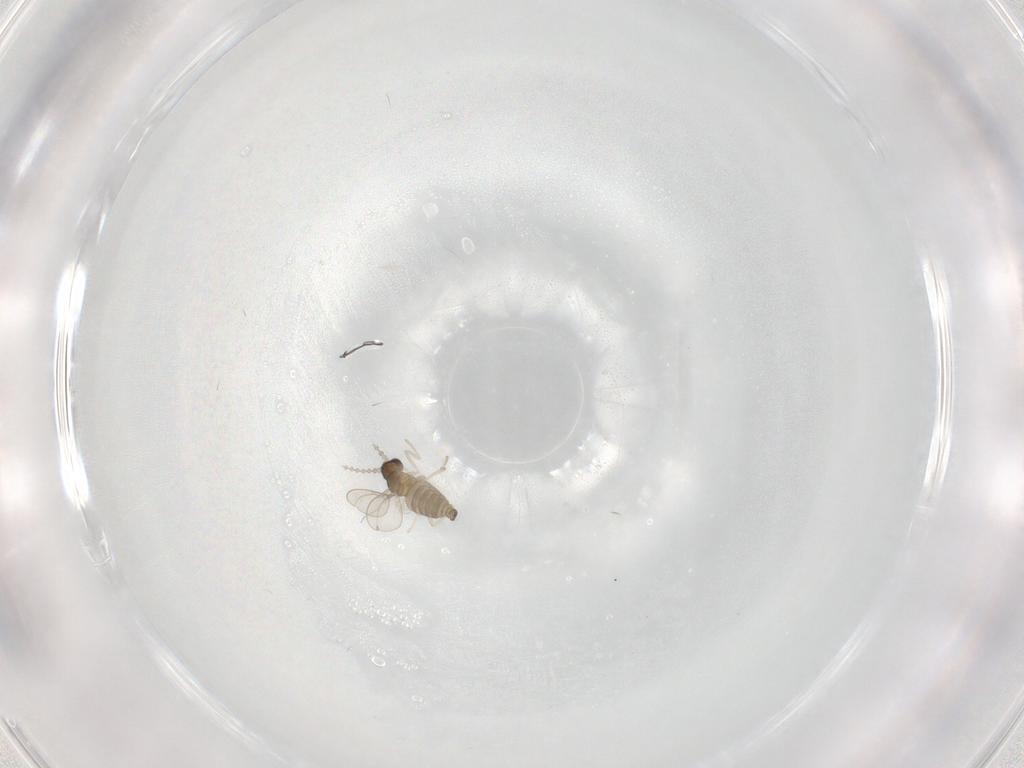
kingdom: Animalia
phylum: Arthropoda
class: Insecta
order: Diptera
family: Cecidomyiidae
